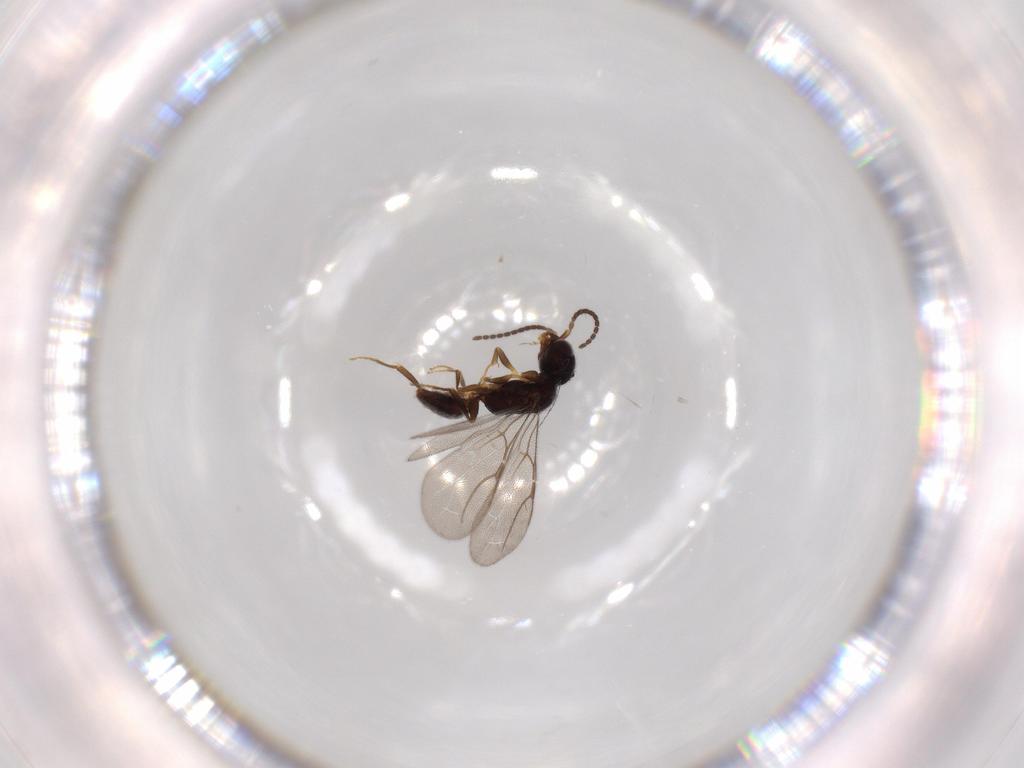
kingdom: Animalia
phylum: Arthropoda
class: Insecta
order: Hymenoptera
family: Bethylidae
